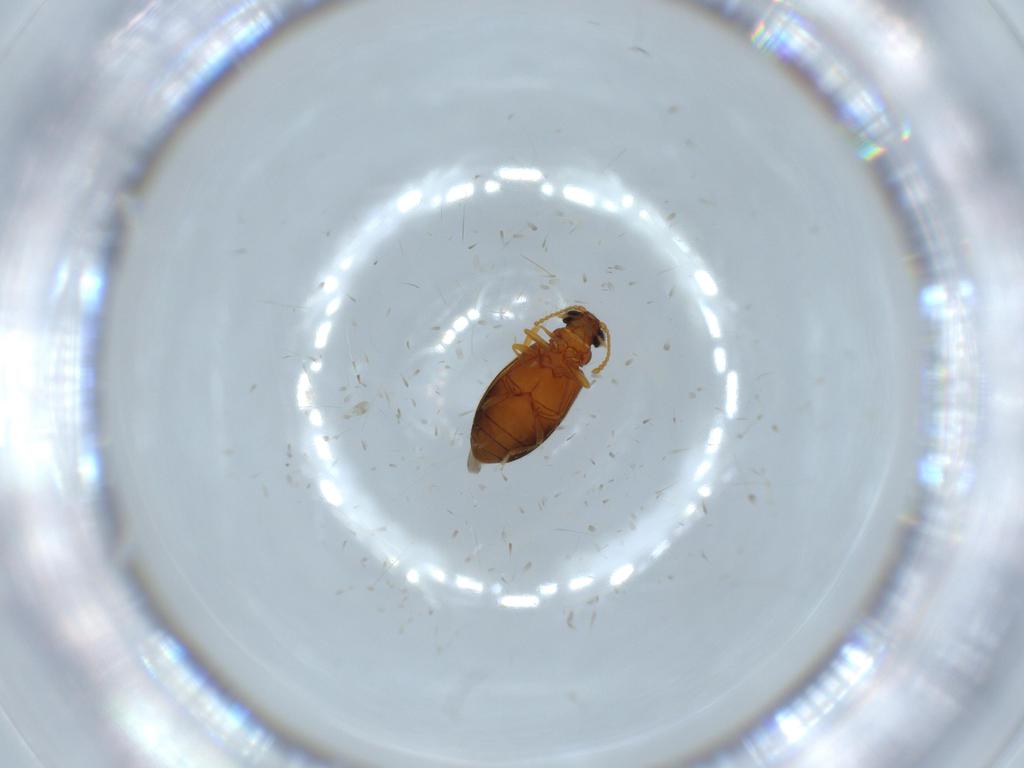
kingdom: Animalia
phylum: Arthropoda
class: Insecta
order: Coleoptera
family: Aderidae
